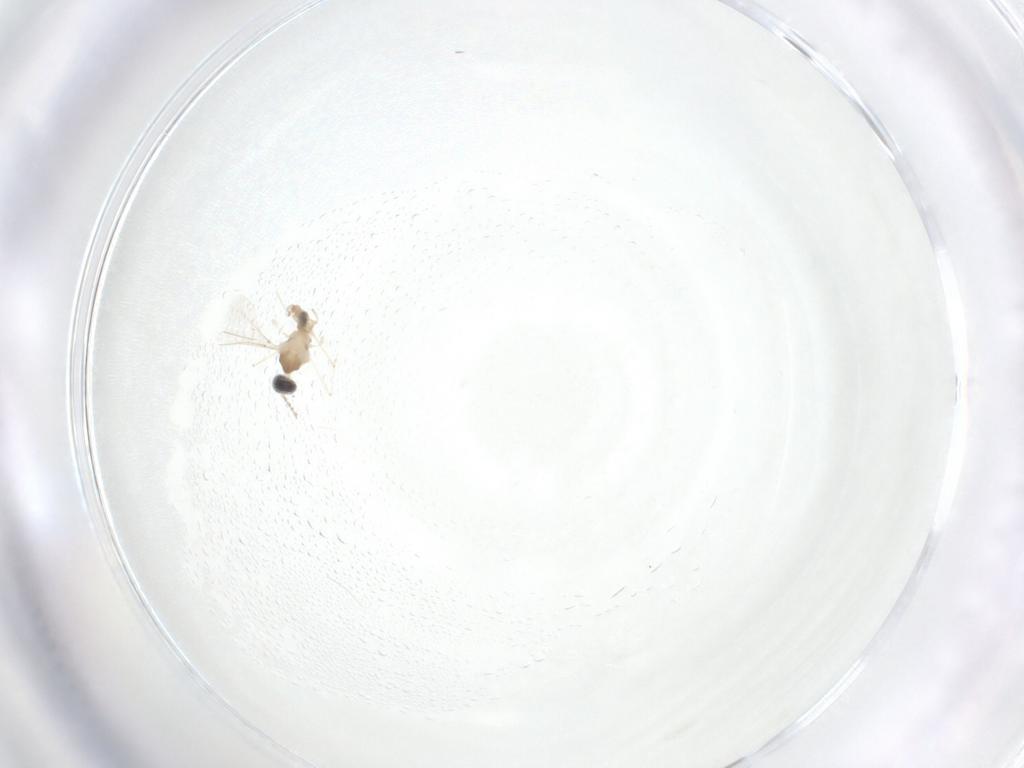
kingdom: Animalia
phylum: Arthropoda
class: Insecta
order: Diptera
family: Cecidomyiidae
